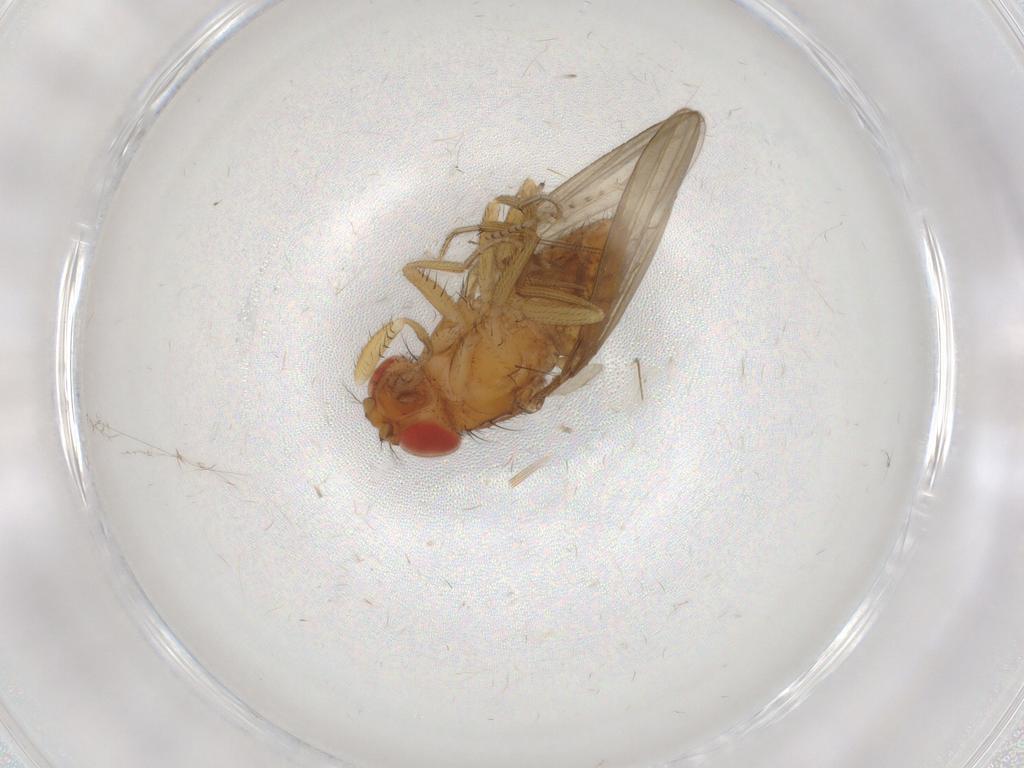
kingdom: Animalia
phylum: Arthropoda
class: Insecta
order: Diptera
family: Drosophilidae
